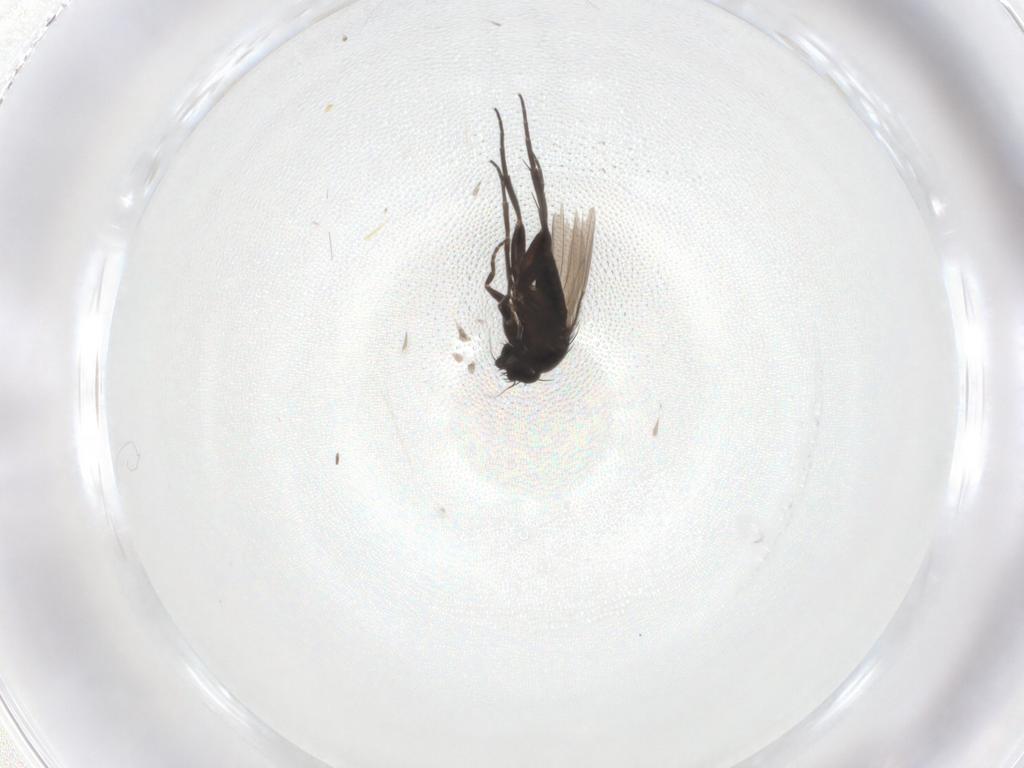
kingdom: Animalia
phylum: Arthropoda
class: Insecta
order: Diptera
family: Phoridae
